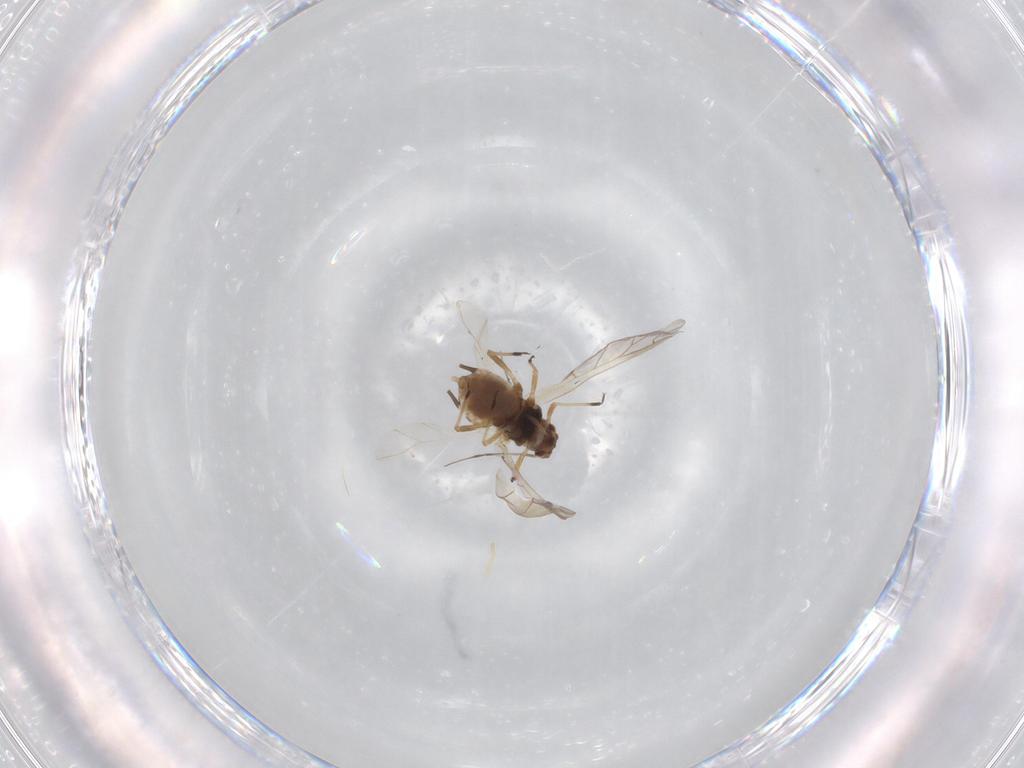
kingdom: Animalia
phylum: Arthropoda
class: Insecta
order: Hemiptera
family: Aphididae
